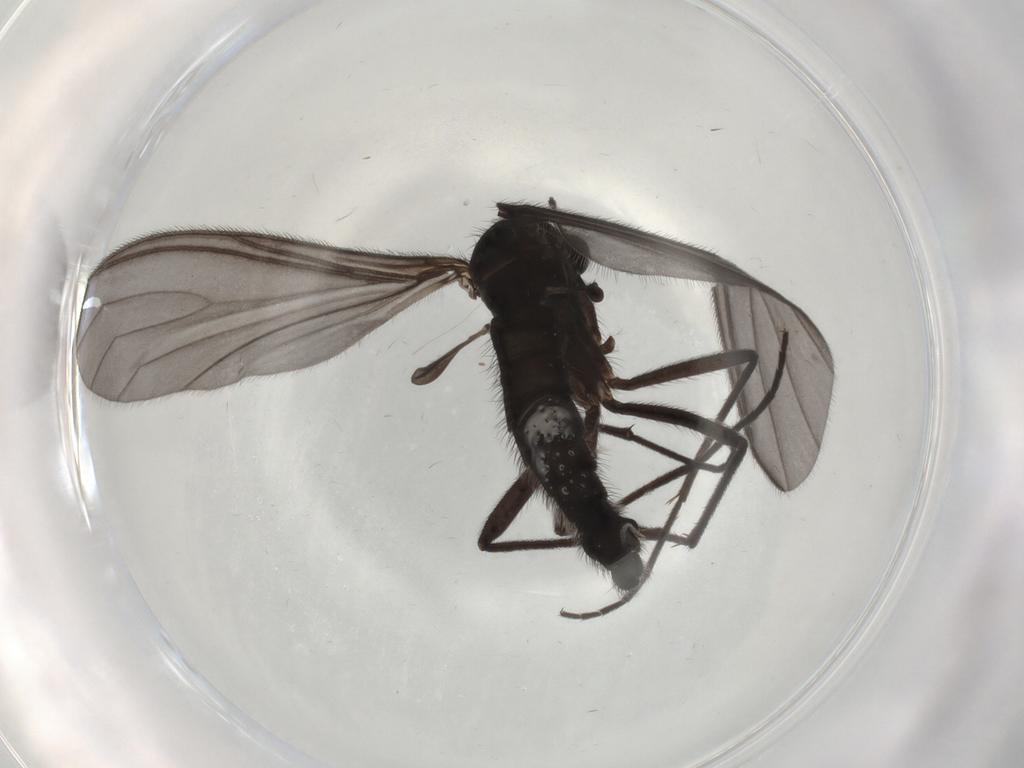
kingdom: Animalia
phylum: Arthropoda
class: Insecta
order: Diptera
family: Sciaridae
